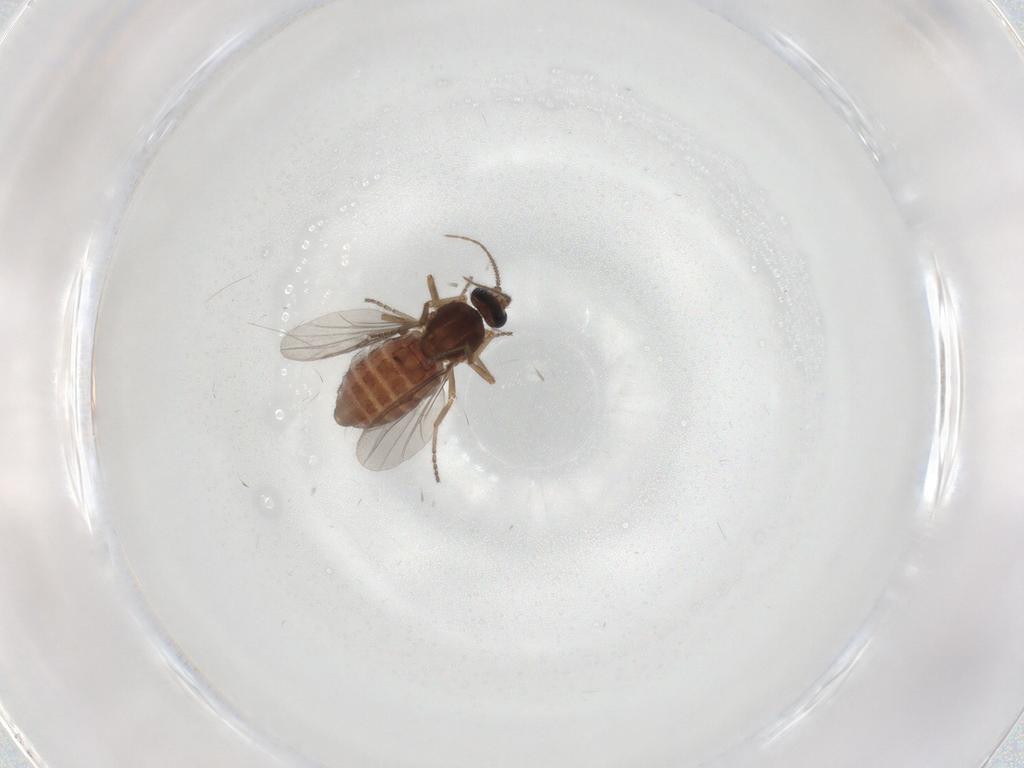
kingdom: Animalia
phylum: Arthropoda
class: Insecta
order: Diptera
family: Ceratopogonidae
